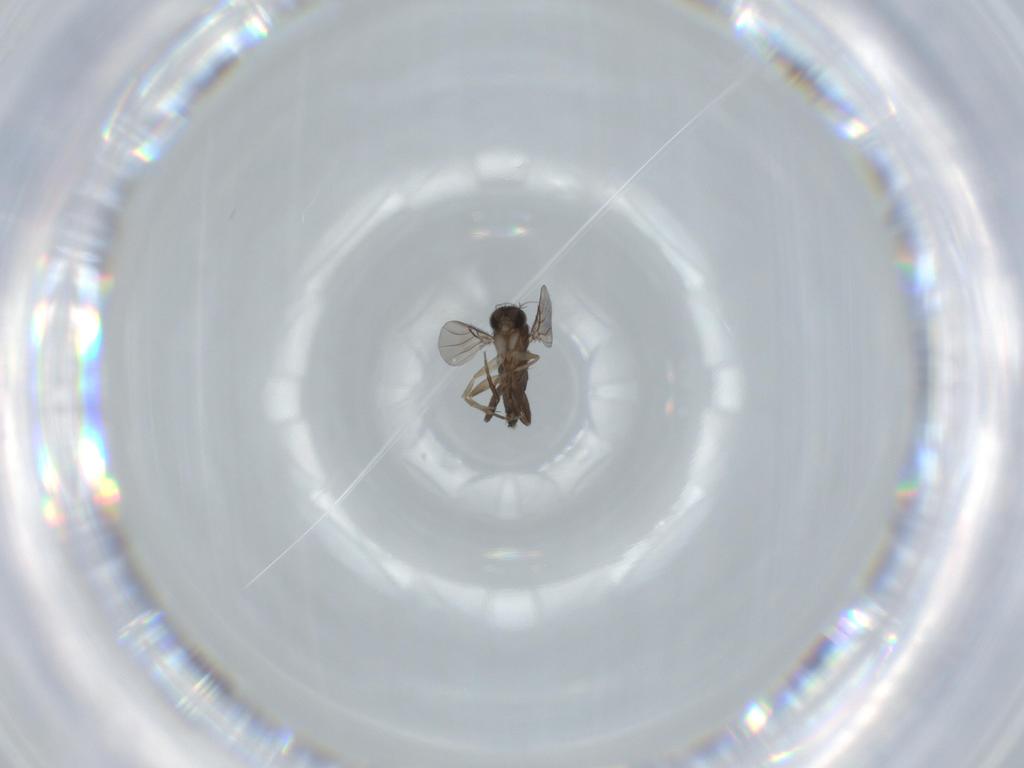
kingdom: Animalia
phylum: Arthropoda
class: Insecta
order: Diptera
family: Phoridae
